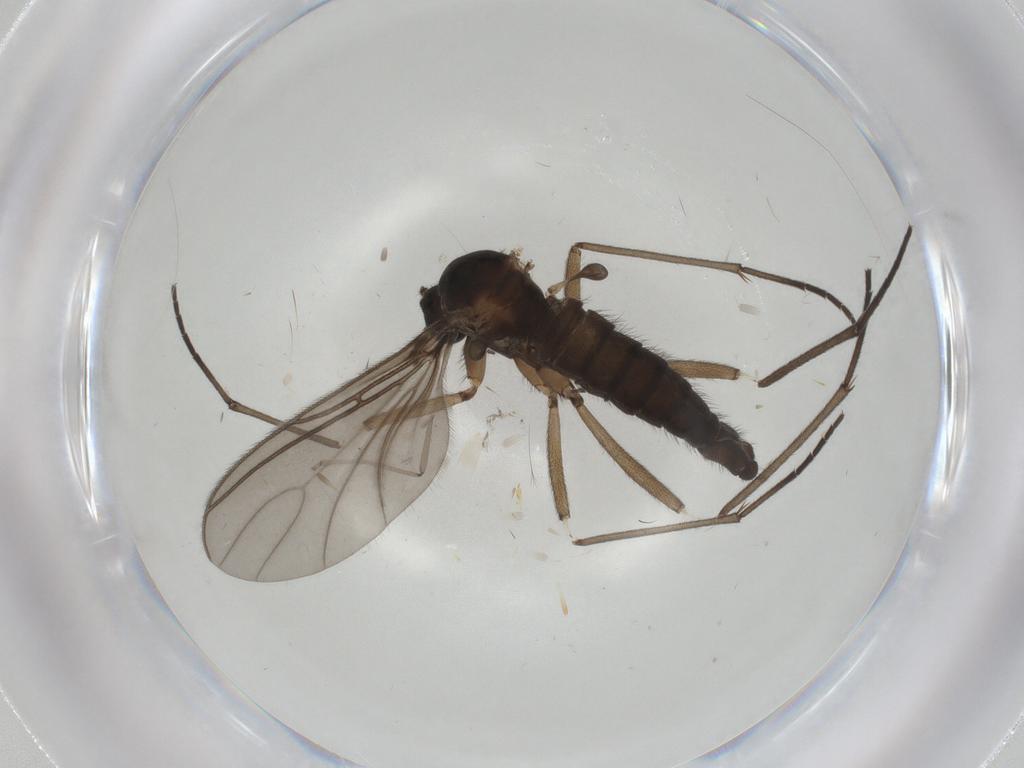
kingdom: Animalia
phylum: Arthropoda
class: Insecta
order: Diptera
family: Sciaridae
